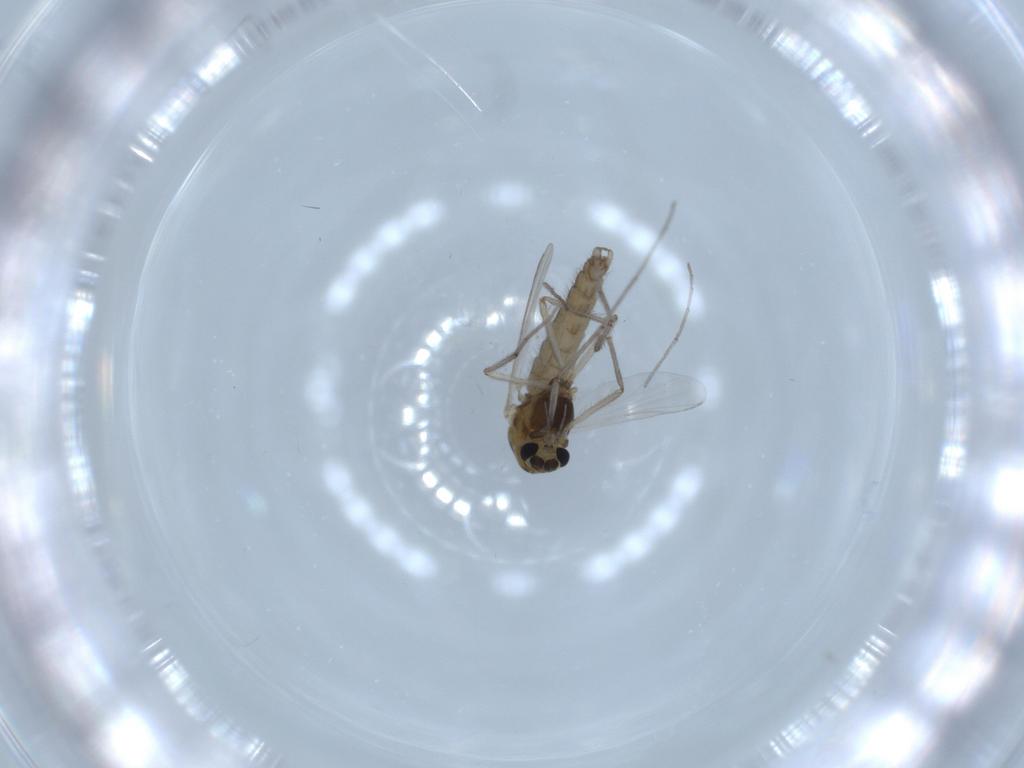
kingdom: Animalia
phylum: Arthropoda
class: Insecta
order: Diptera
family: Chironomidae
